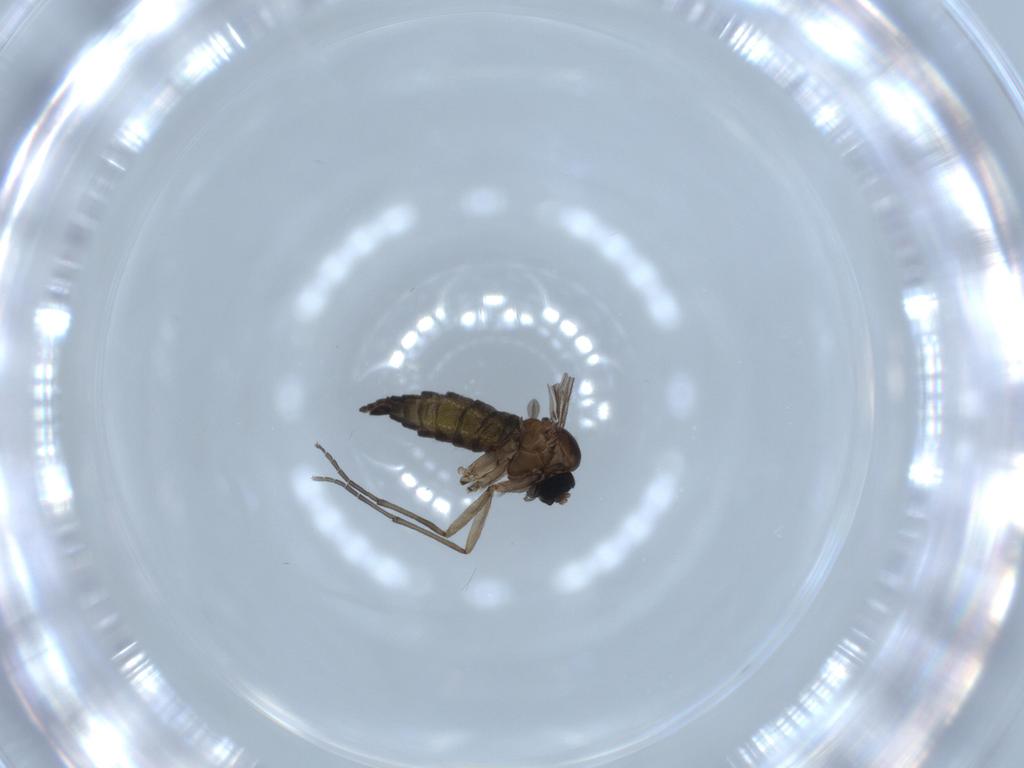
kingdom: Animalia
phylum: Arthropoda
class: Insecta
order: Diptera
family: Sciaridae
